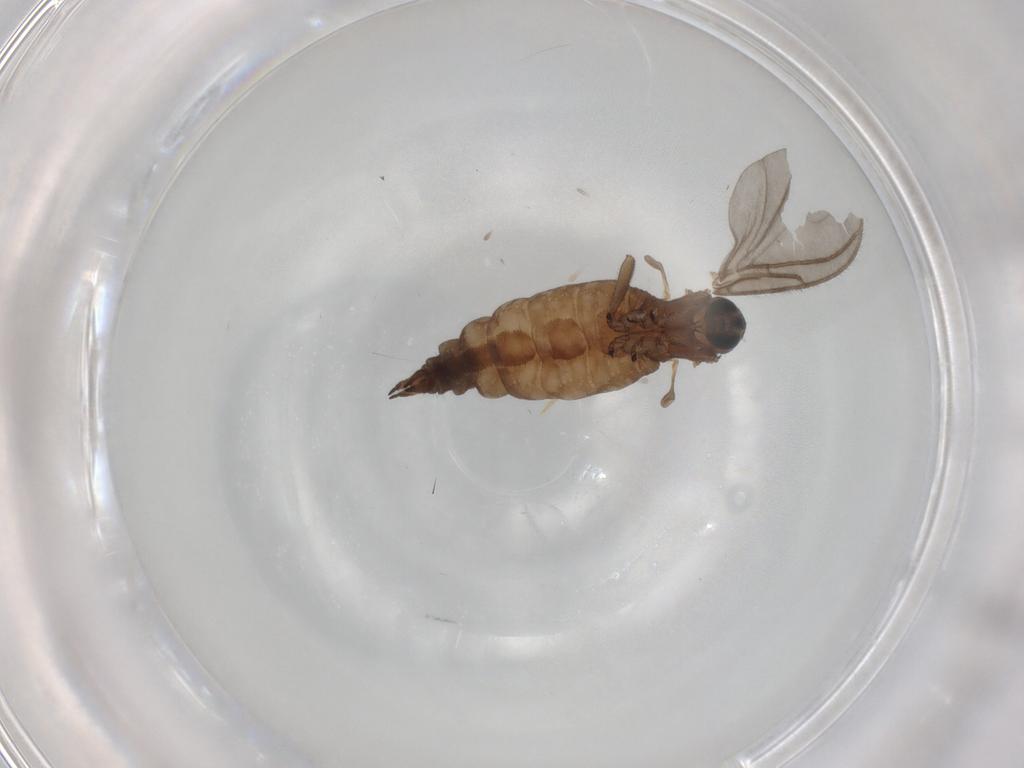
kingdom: Animalia
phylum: Arthropoda
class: Insecta
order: Diptera
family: Sciaridae
